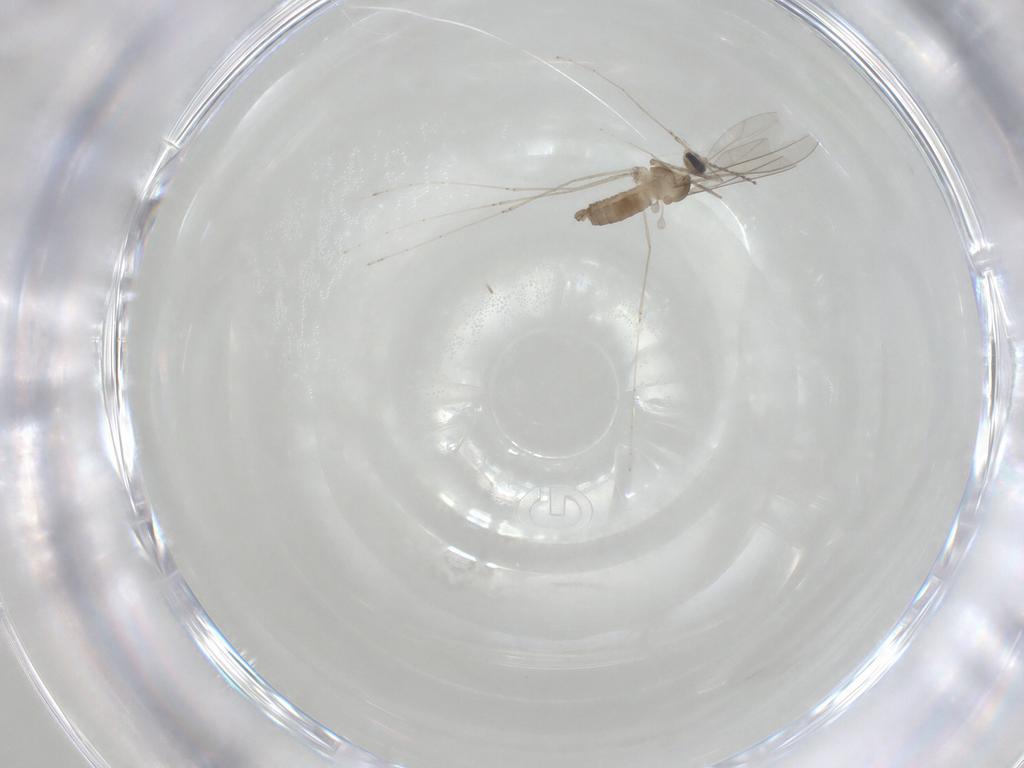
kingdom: Animalia
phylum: Arthropoda
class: Insecta
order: Diptera
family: Cecidomyiidae
